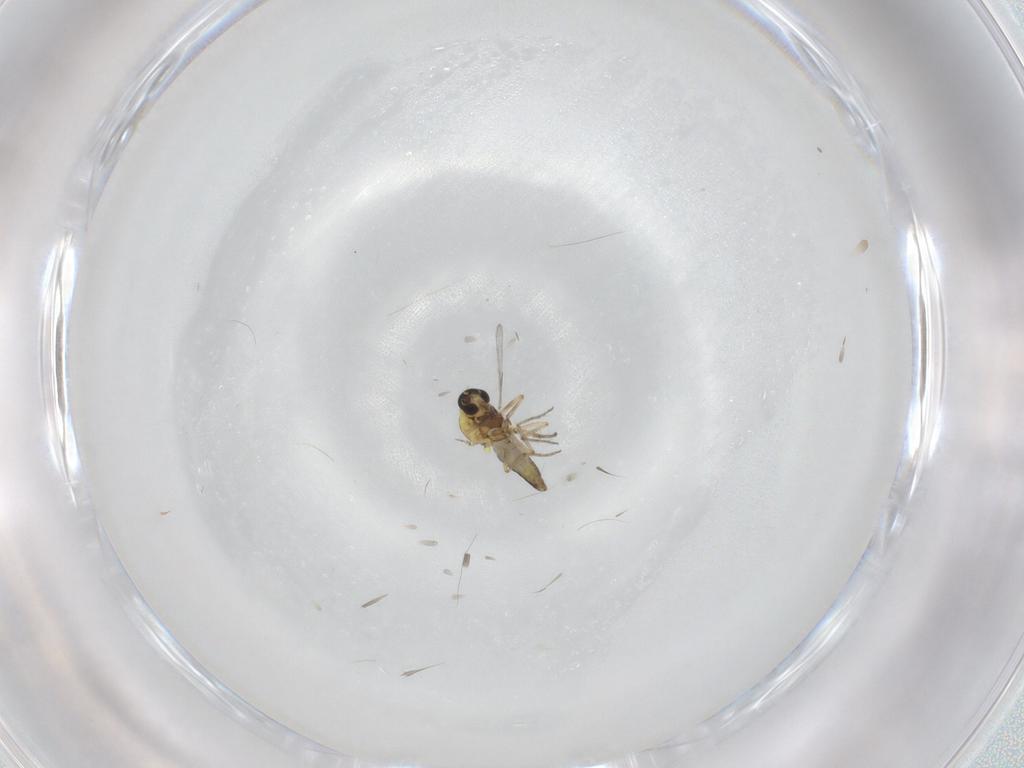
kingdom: Animalia
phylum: Arthropoda
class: Insecta
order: Diptera
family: Ceratopogonidae
